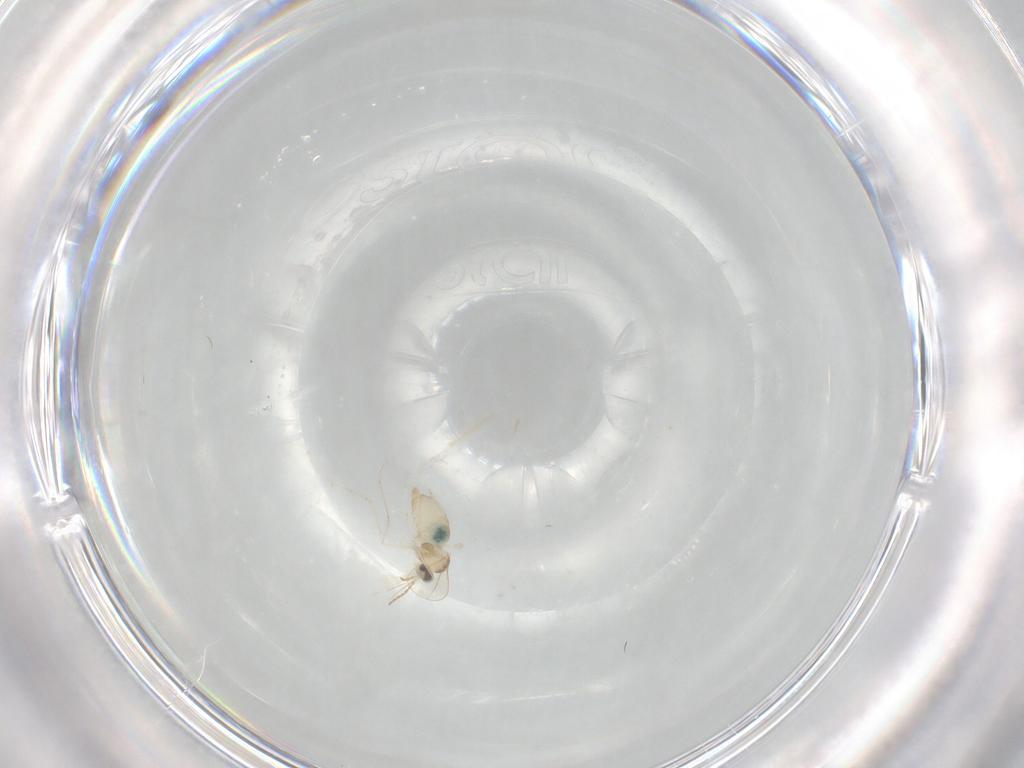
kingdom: Animalia
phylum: Arthropoda
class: Insecta
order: Diptera
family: Cecidomyiidae
